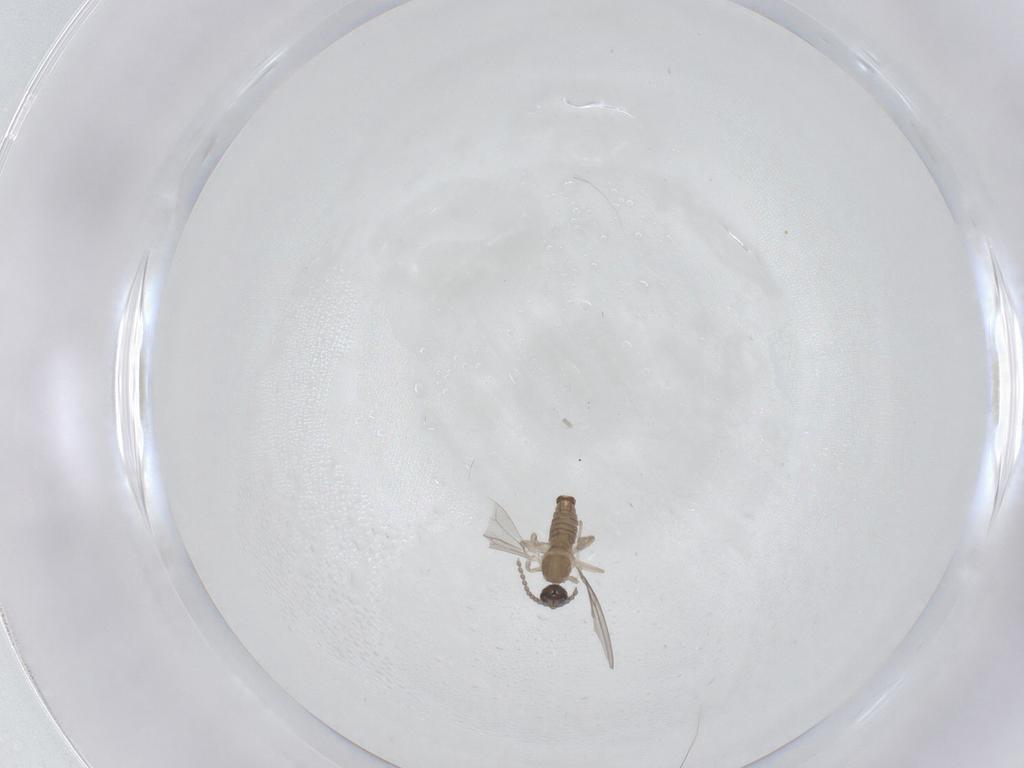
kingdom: Animalia
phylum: Arthropoda
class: Insecta
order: Diptera
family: Cecidomyiidae
